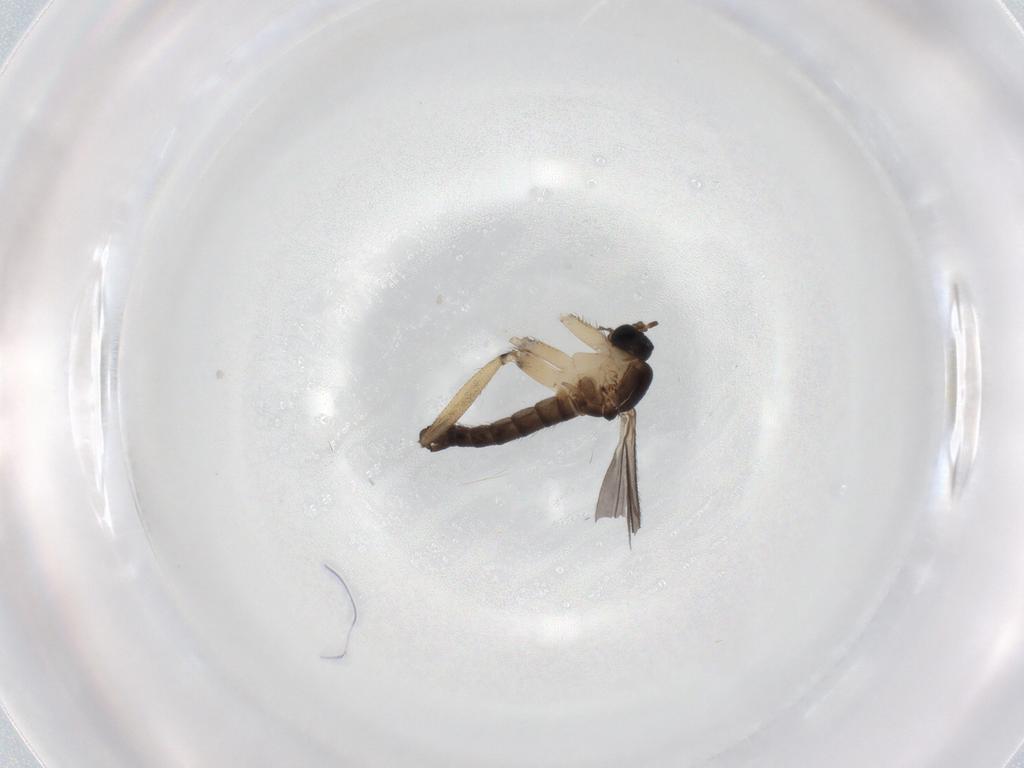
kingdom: Animalia
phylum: Arthropoda
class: Insecta
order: Diptera
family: Sciaridae
